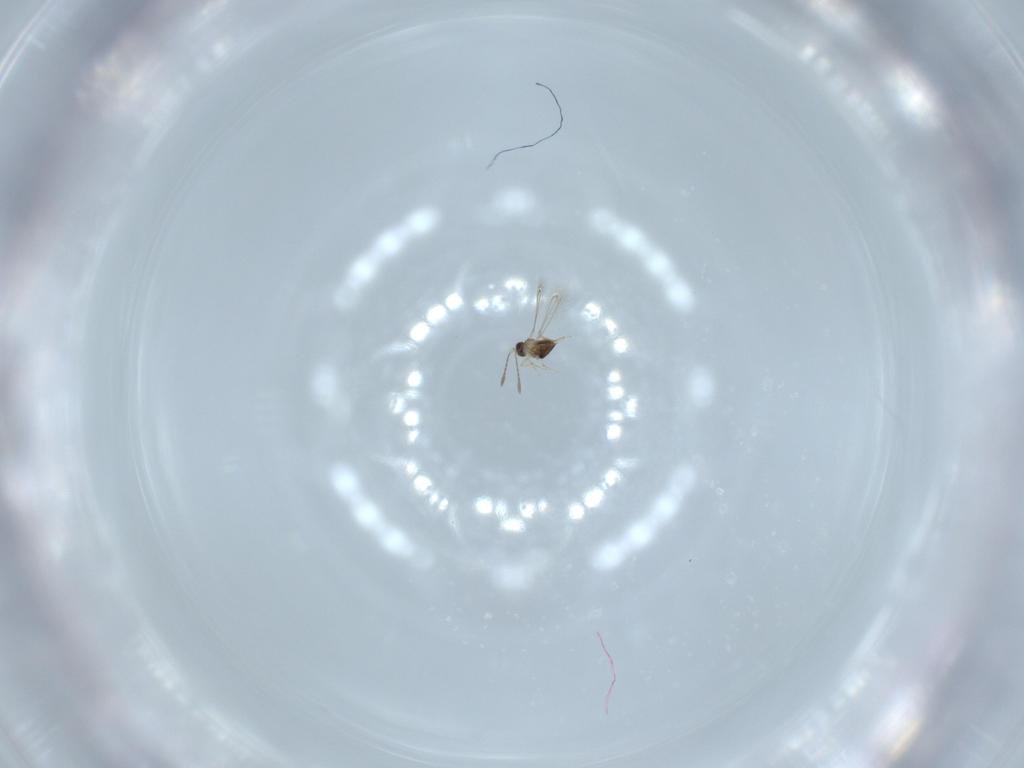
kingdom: Animalia
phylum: Arthropoda
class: Insecta
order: Hymenoptera
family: Mymaridae
